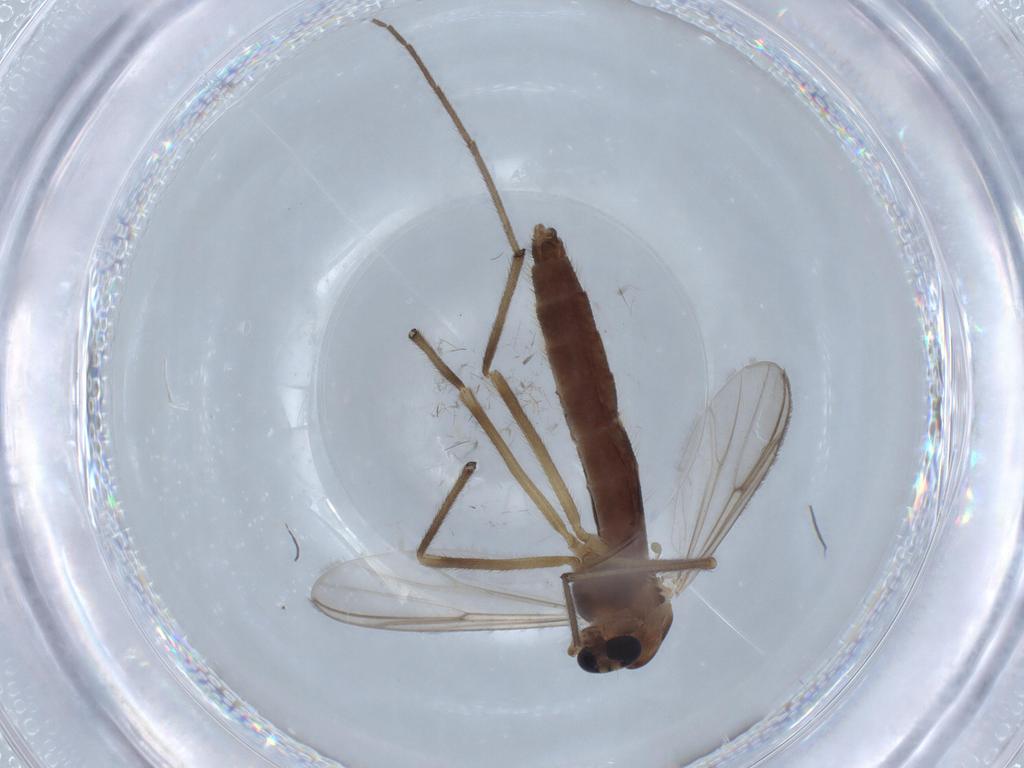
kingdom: Animalia
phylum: Arthropoda
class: Insecta
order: Diptera
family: Chironomidae
